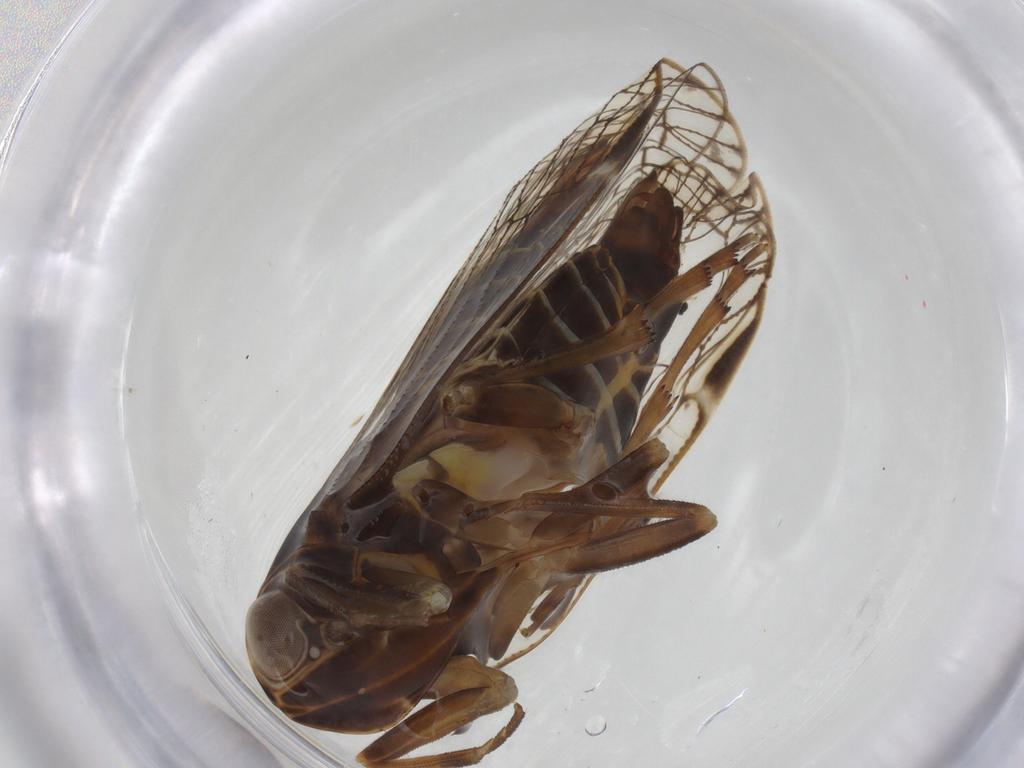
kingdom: Animalia
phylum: Arthropoda
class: Insecta
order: Hemiptera
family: Cixiidae
